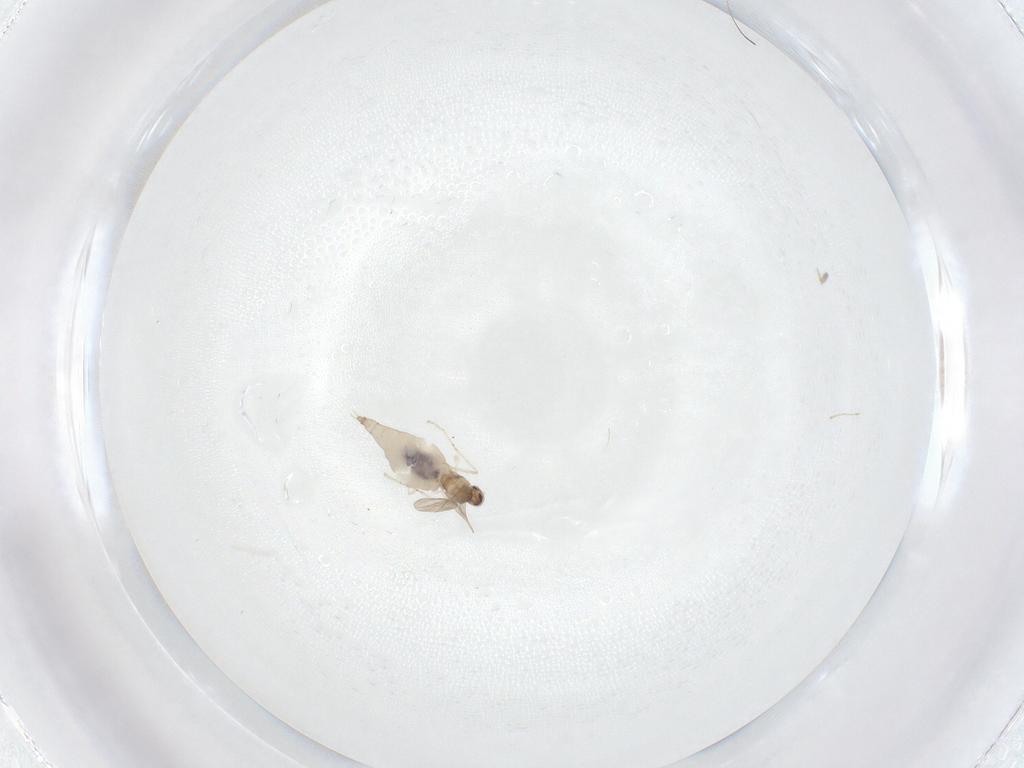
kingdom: Animalia
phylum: Arthropoda
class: Insecta
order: Diptera
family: Cecidomyiidae
